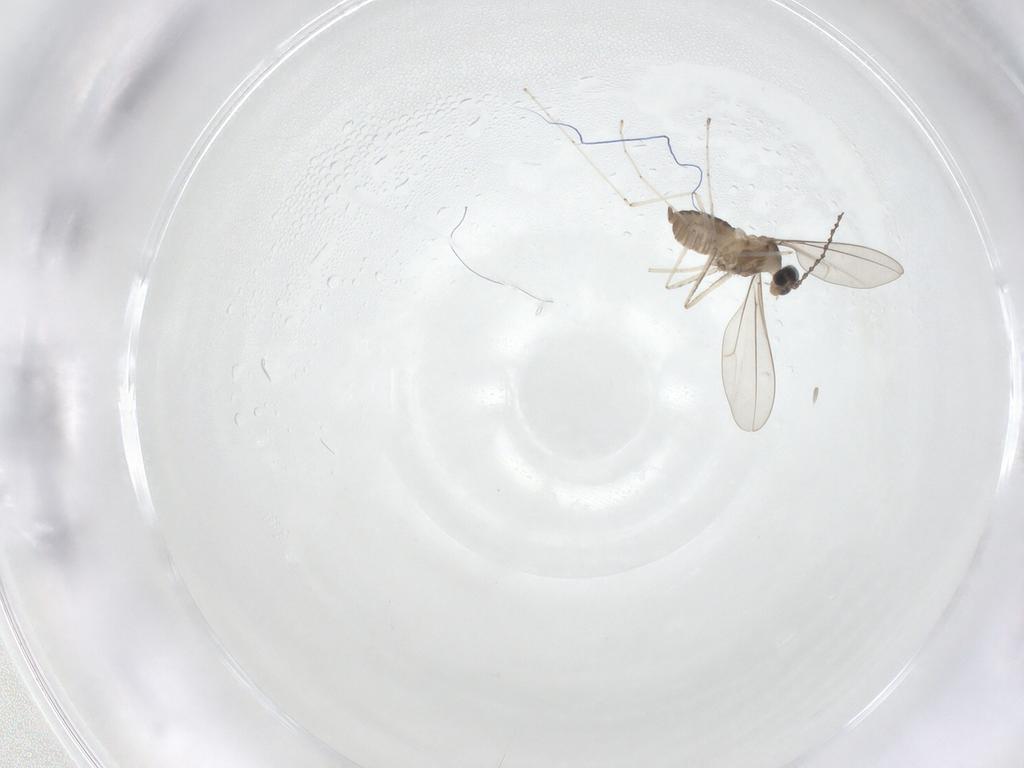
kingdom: Animalia
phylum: Arthropoda
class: Insecta
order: Diptera
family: Cecidomyiidae
